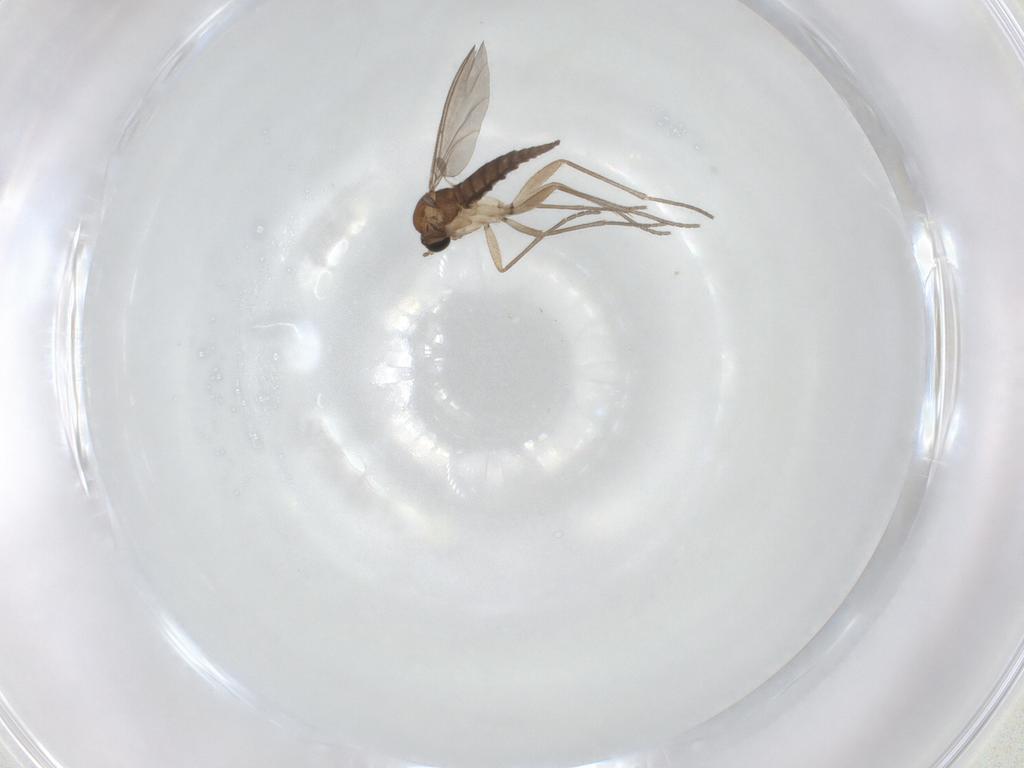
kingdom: Animalia
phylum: Arthropoda
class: Insecta
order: Diptera
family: Sciaridae
